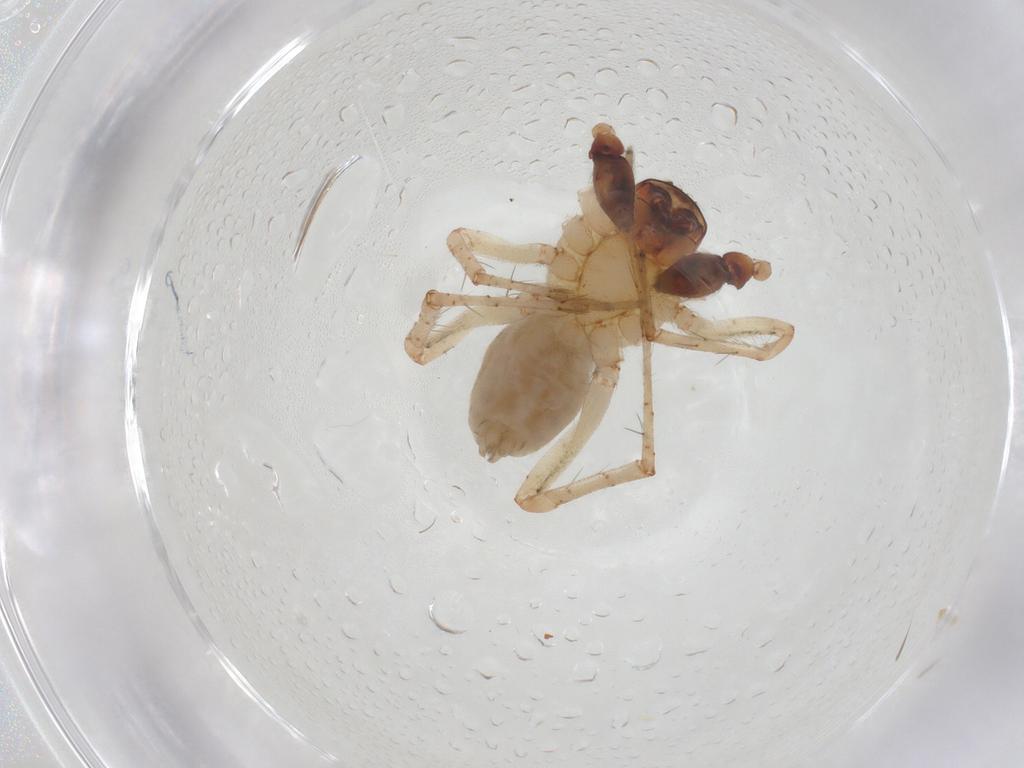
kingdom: Animalia
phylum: Arthropoda
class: Arachnida
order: Araneae
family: Anyphaenidae
